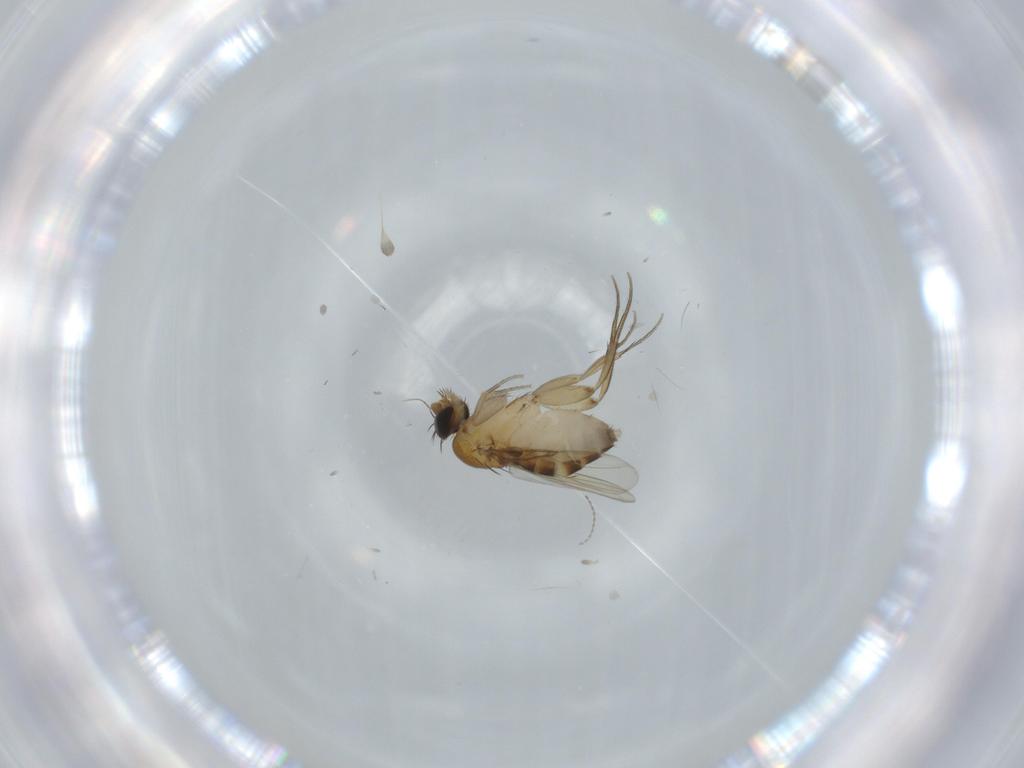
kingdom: Animalia
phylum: Arthropoda
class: Insecta
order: Diptera
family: Phoridae
